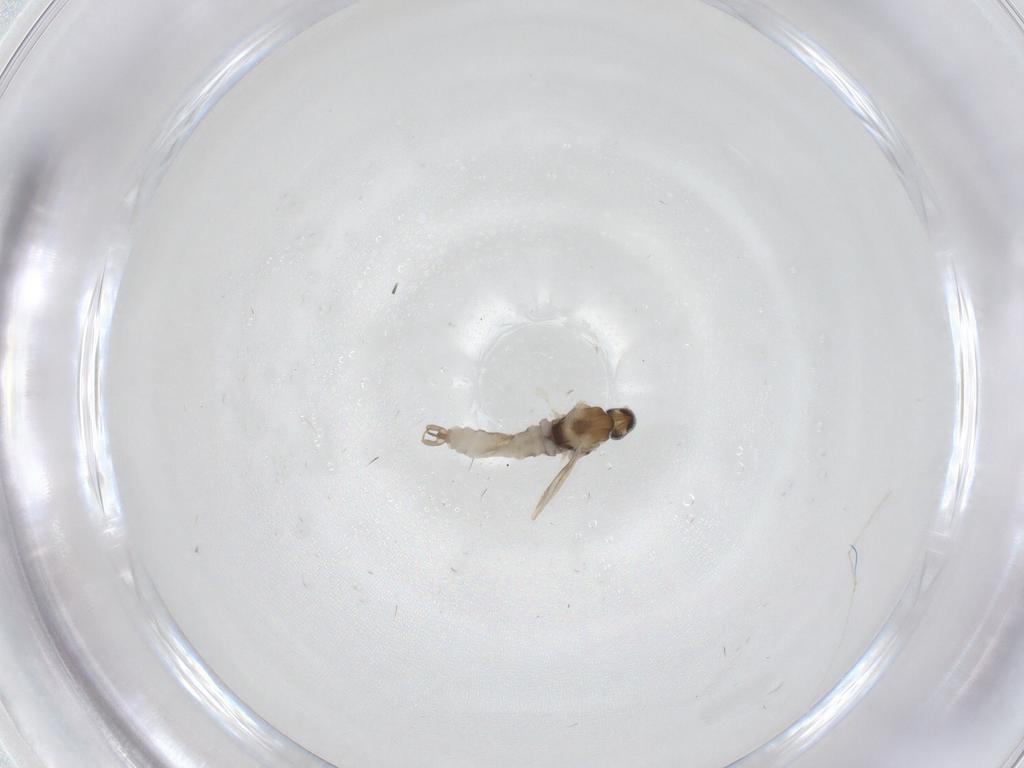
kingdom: Animalia
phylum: Arthropoda
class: Insecta
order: Diptera
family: Cecidomyiidae
